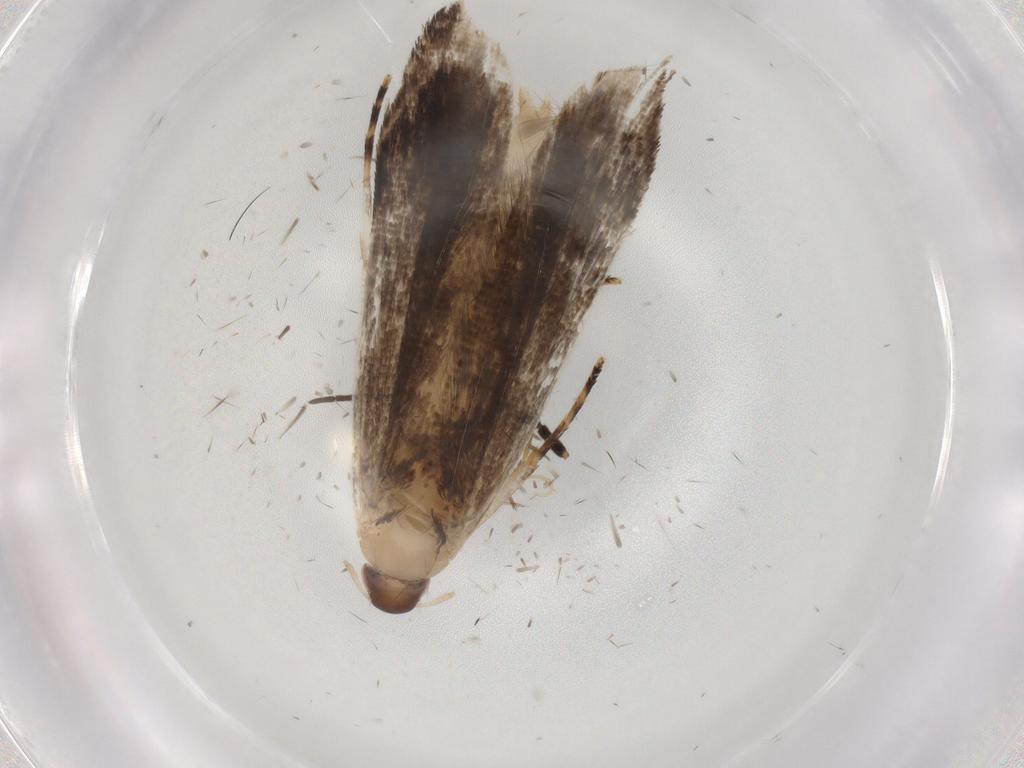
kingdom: Animalia
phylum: Arthropoda
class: Insecta
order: Lepidoptera
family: Gelechiidae
